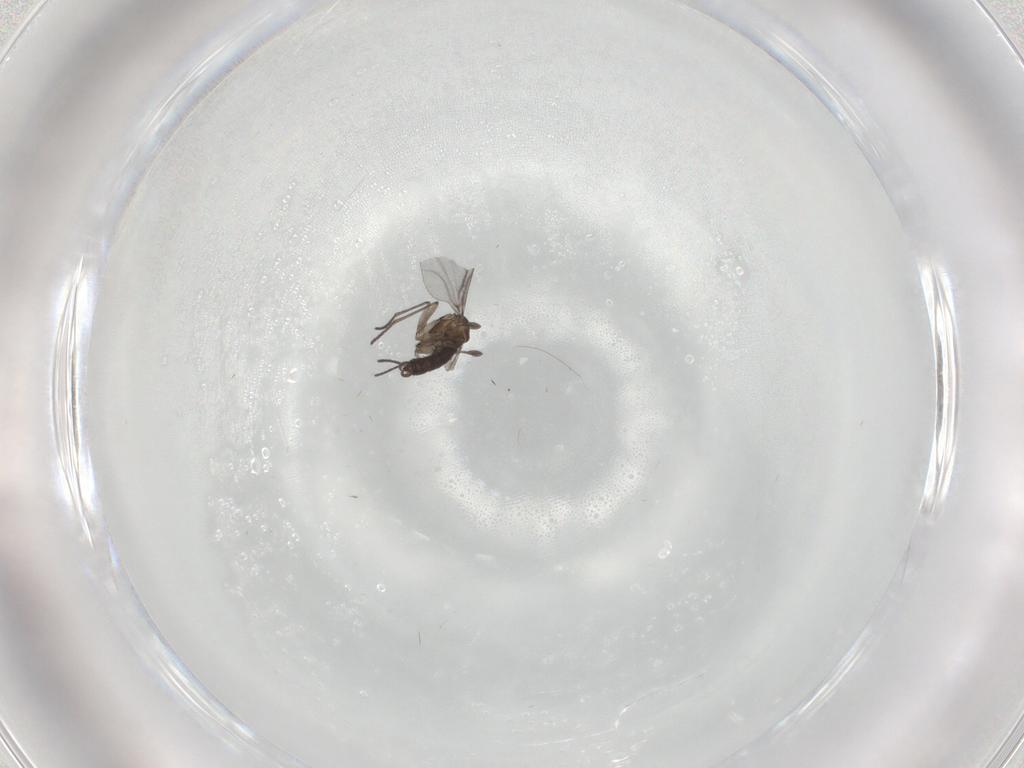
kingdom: Animalia
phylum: Arthropoda
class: Insecta
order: Diptera
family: Sciaridae
